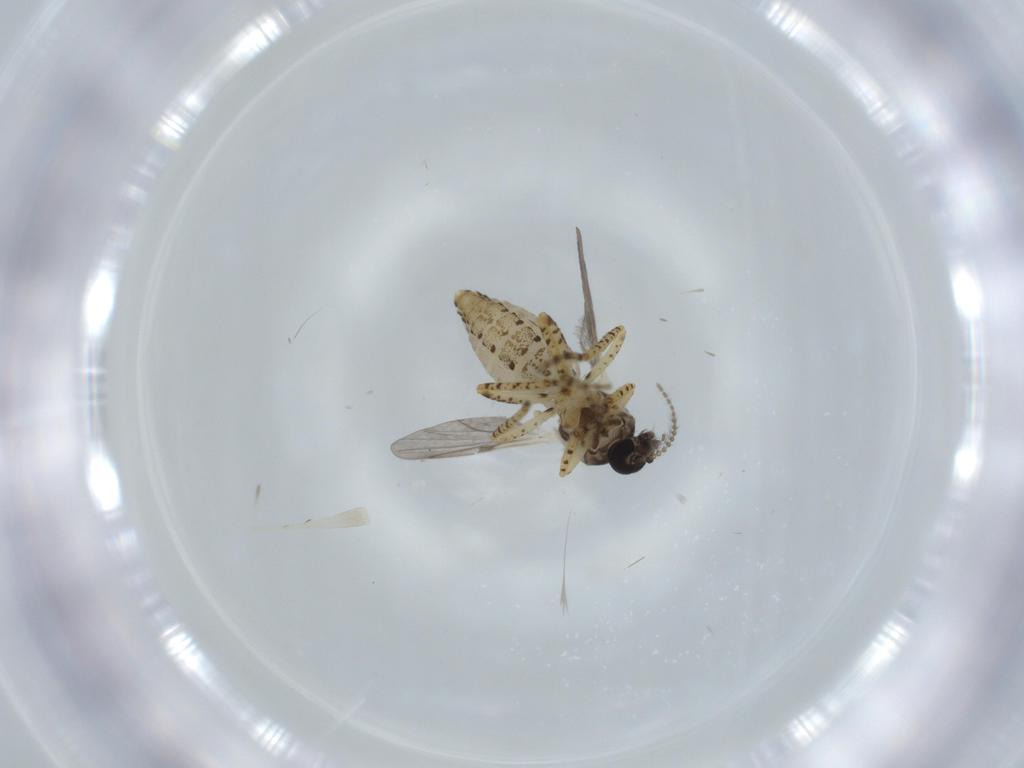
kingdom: Animalia
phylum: Arthropoda
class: Insecta
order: Diptera
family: Ceratopogonidae
